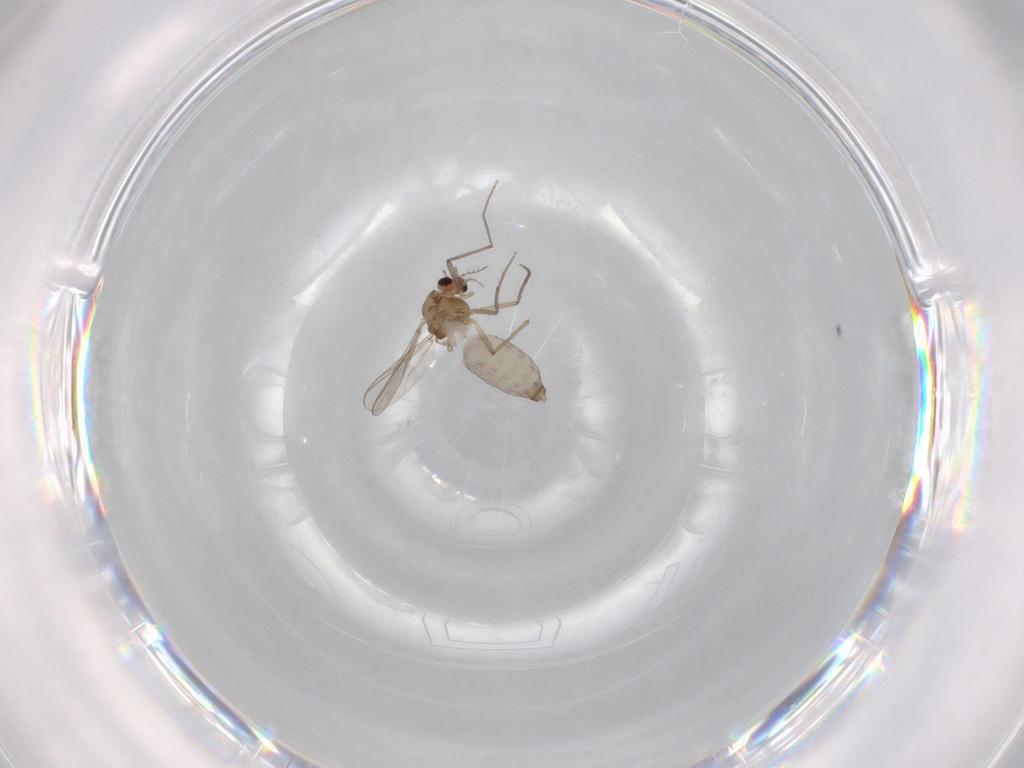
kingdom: Animalia
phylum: Arthropoda
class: Insecta
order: Diptera
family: Chironomidae
